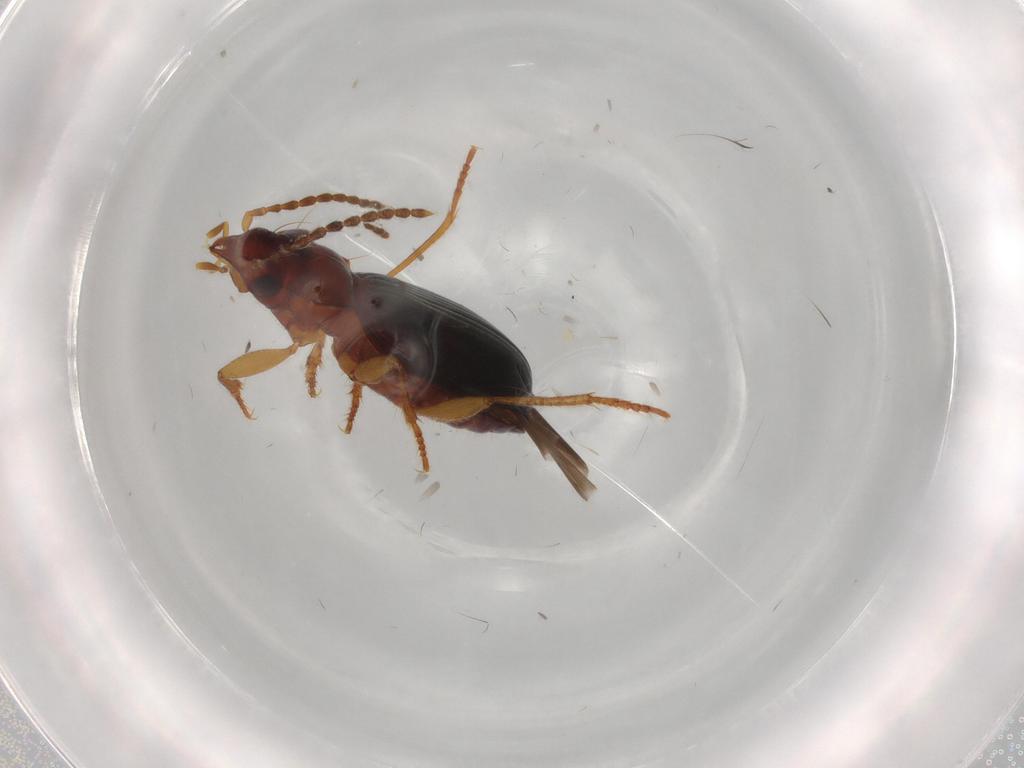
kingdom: Animalia
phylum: Arthropoda
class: Insecta
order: Coleoptera
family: Carabidae
